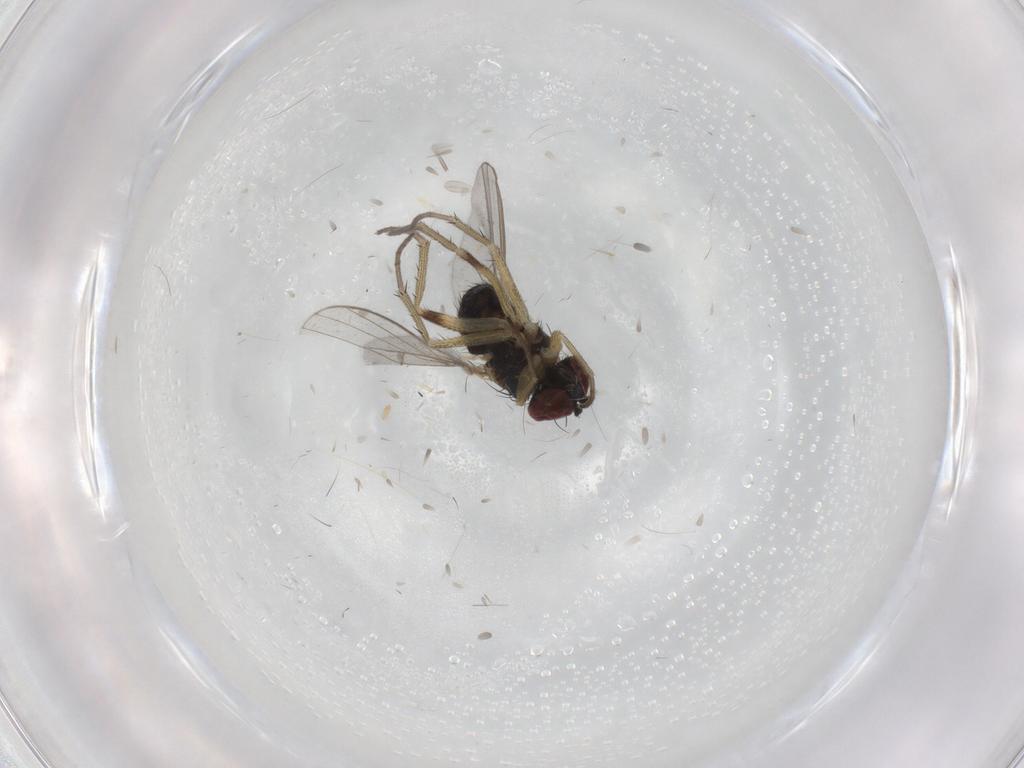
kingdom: Animalia
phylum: Arthropoda
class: Insecta
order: Diptera
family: Dolichopodidae
